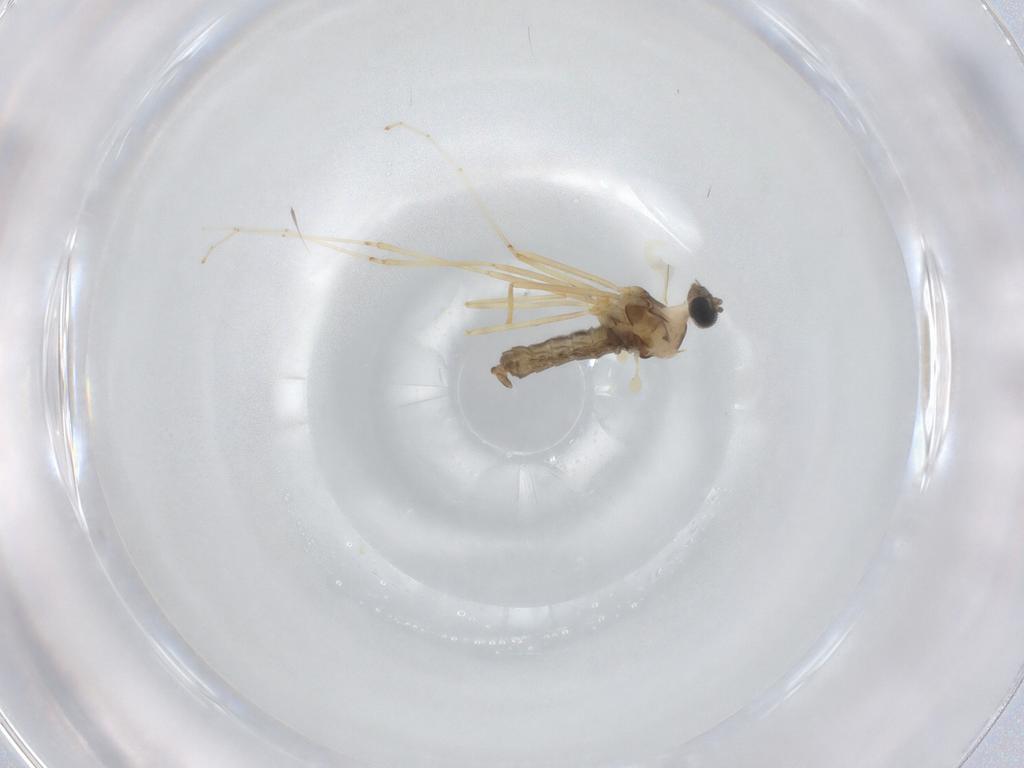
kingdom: Animalia
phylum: Arthropoda
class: Insecta
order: Diptera
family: Cecidomyiidae
